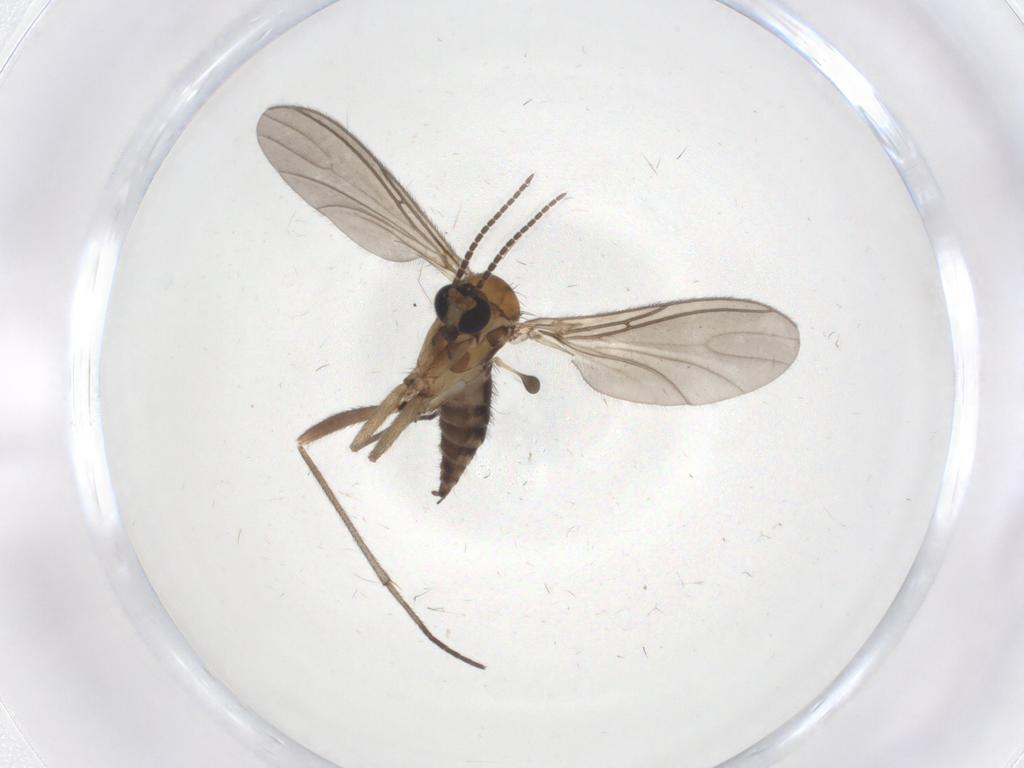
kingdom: Animalia
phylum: Arthropoda
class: Insecta
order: Diptera
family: Sciaridae
